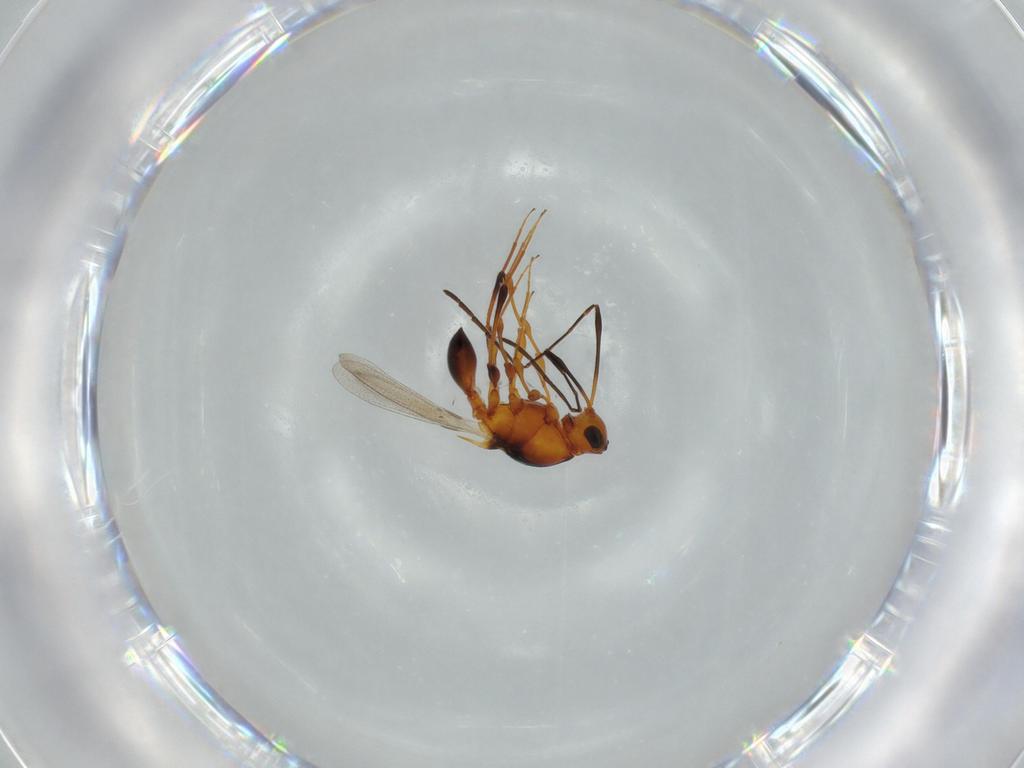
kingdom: Animalia
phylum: Arthropoda
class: Insecta
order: Hymenoptera
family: Platygastridae
